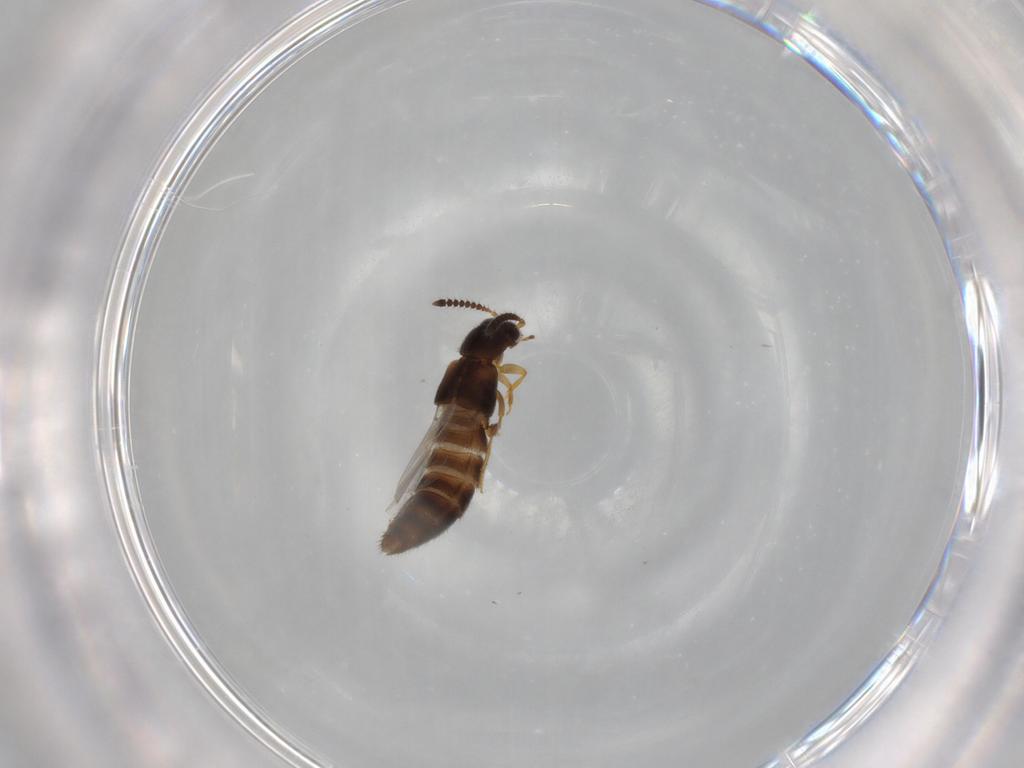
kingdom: Animalia
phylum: Arthropoda
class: Insecta
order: Coleoptera
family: Staphylinidae
